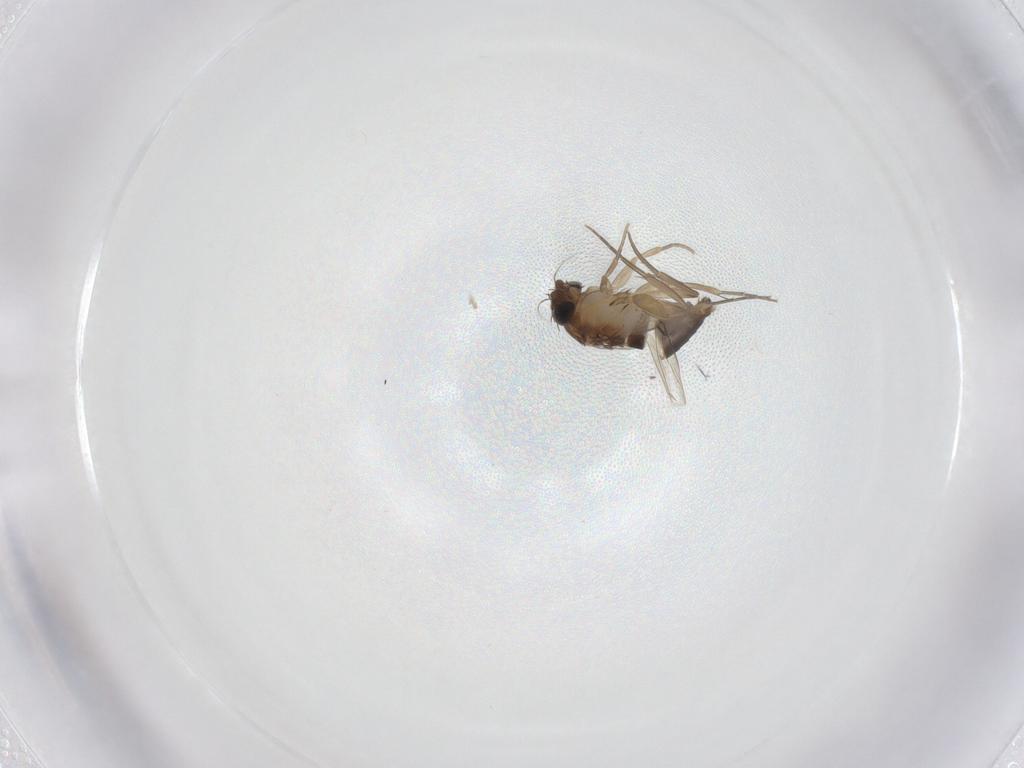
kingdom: Animalia
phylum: Arthropoda
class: Insecta
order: Diptera
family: Phoridae
